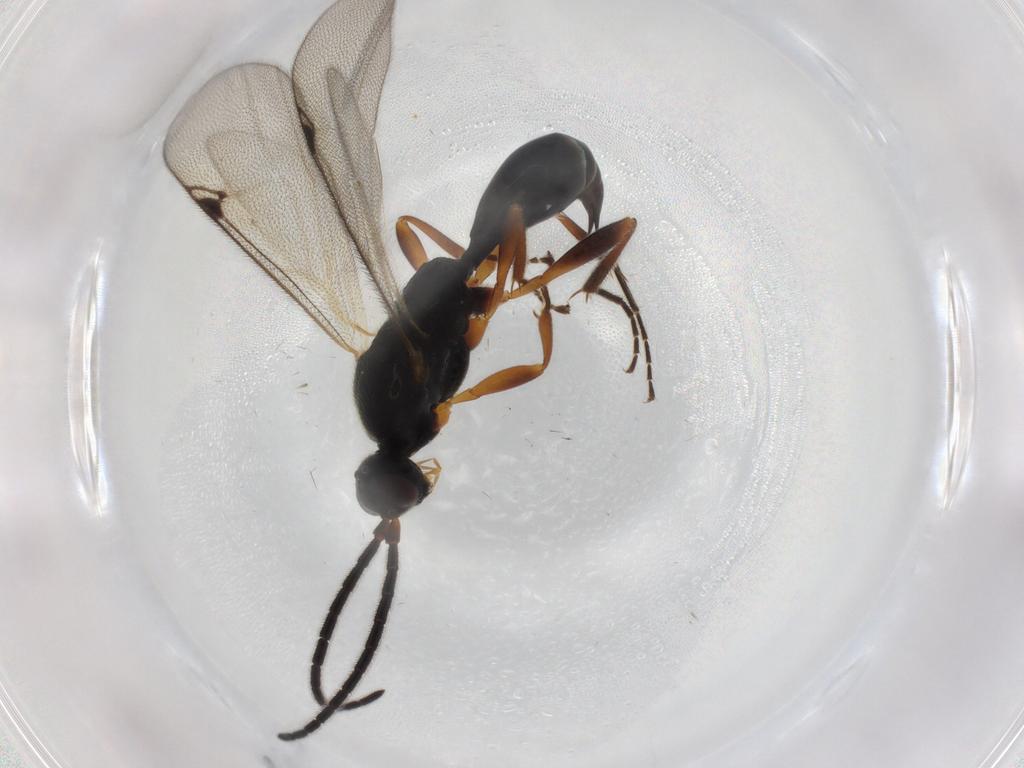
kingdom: Animalia
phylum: Arthropoda
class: Insecta
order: Hymenoptera
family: Proctotrupidae
